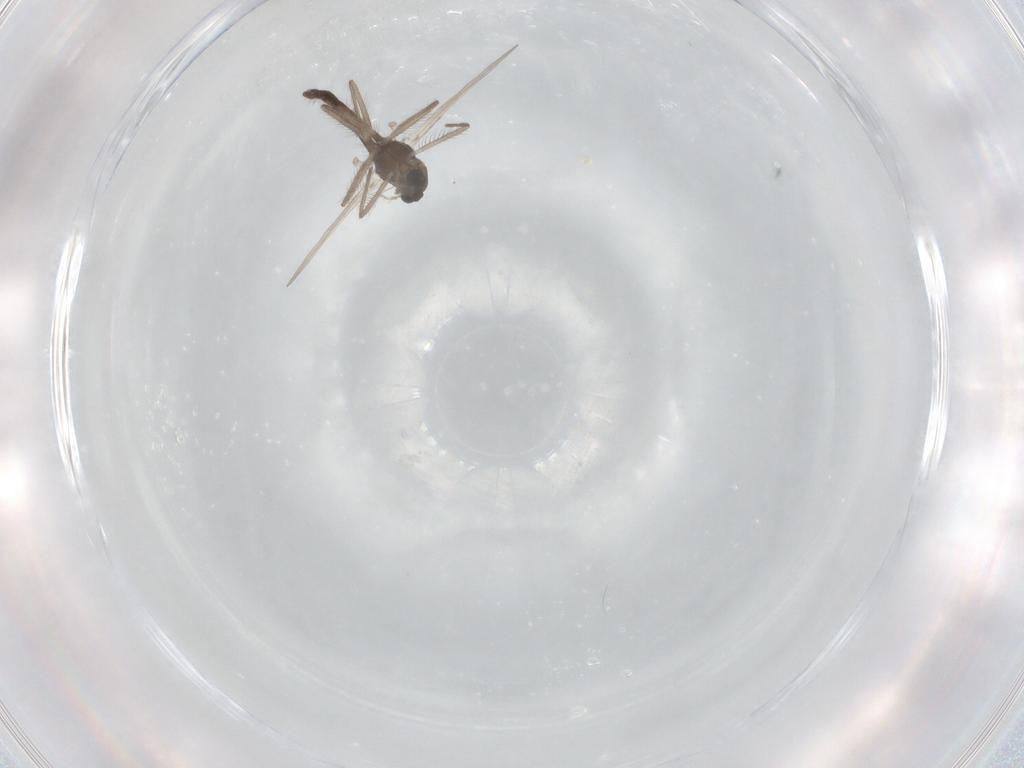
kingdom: Animalia
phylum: Arthropoda
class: Insecta
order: Diptera
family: Chironomidae
